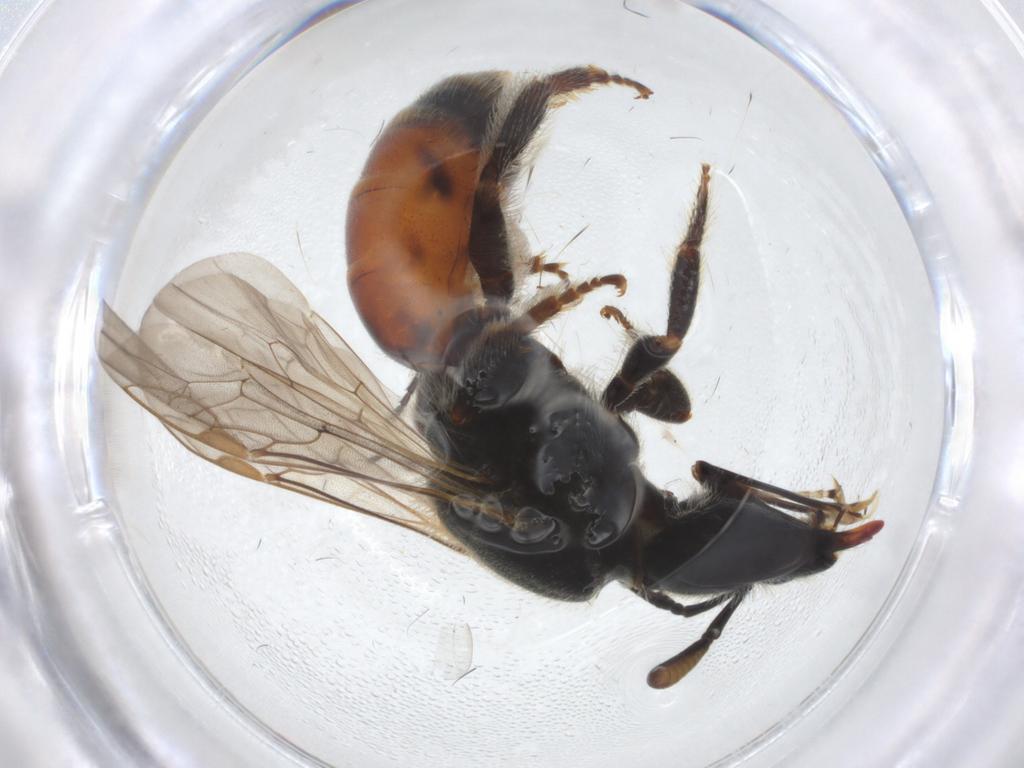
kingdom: Animalia
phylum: Arthropoda
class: Insecta
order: Hymenoptera
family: Halictidae
